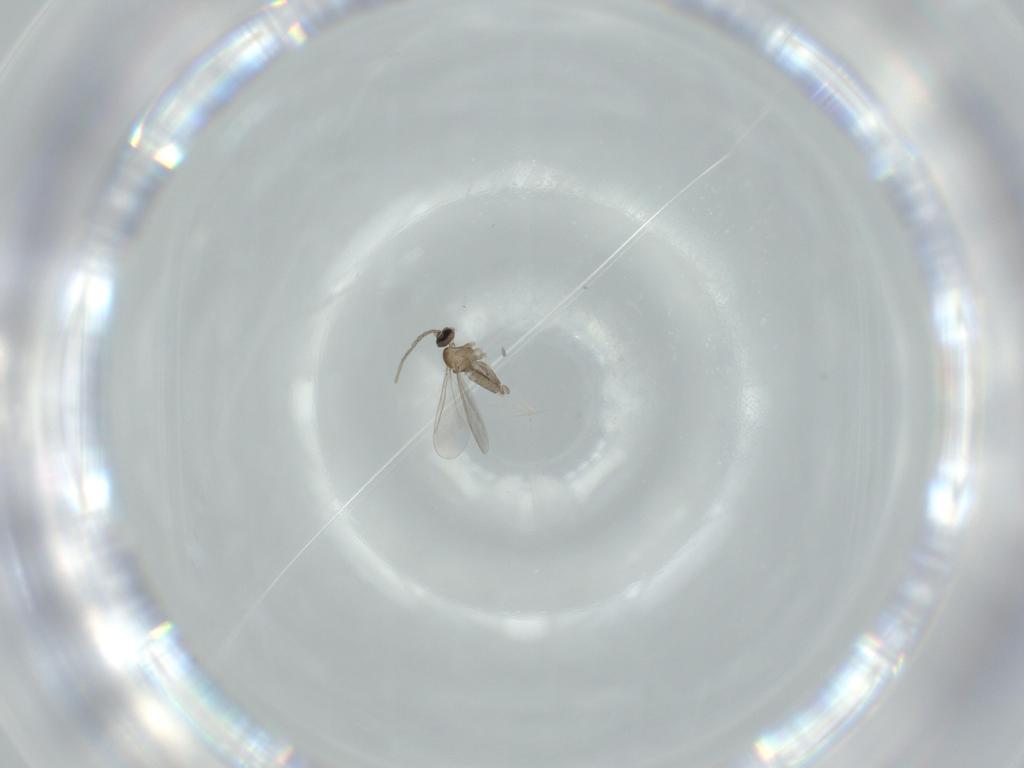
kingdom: Animalia
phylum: Arthropoda
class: Insecta
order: Diptera
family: Cecidomyiidae
